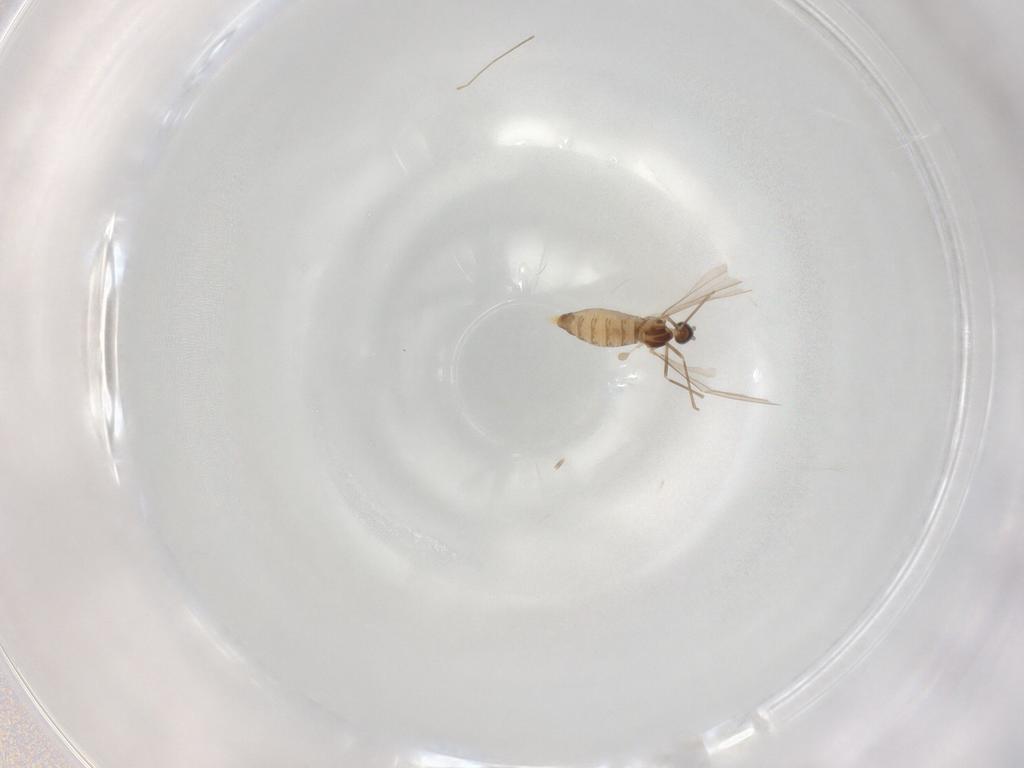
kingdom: Animalia
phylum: Arthropoda
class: Insecta
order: Diptera
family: Cecidomyiidae
